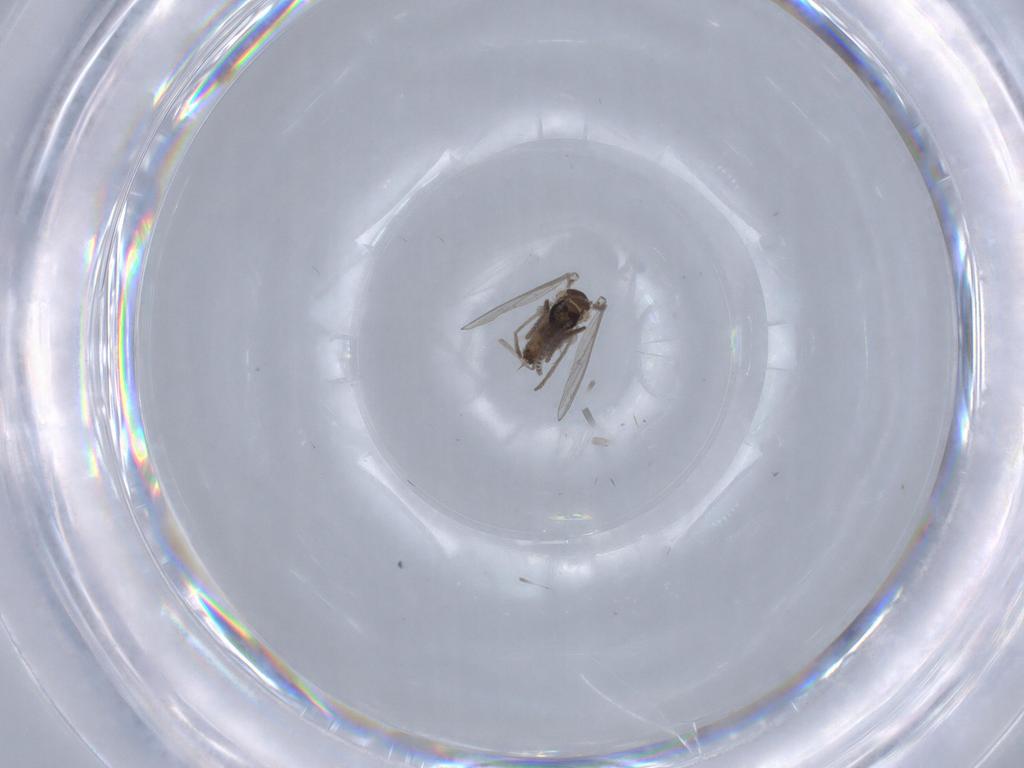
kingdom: Animalia
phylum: Arthropoda
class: Insecta
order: Diptera
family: Psychodidae
